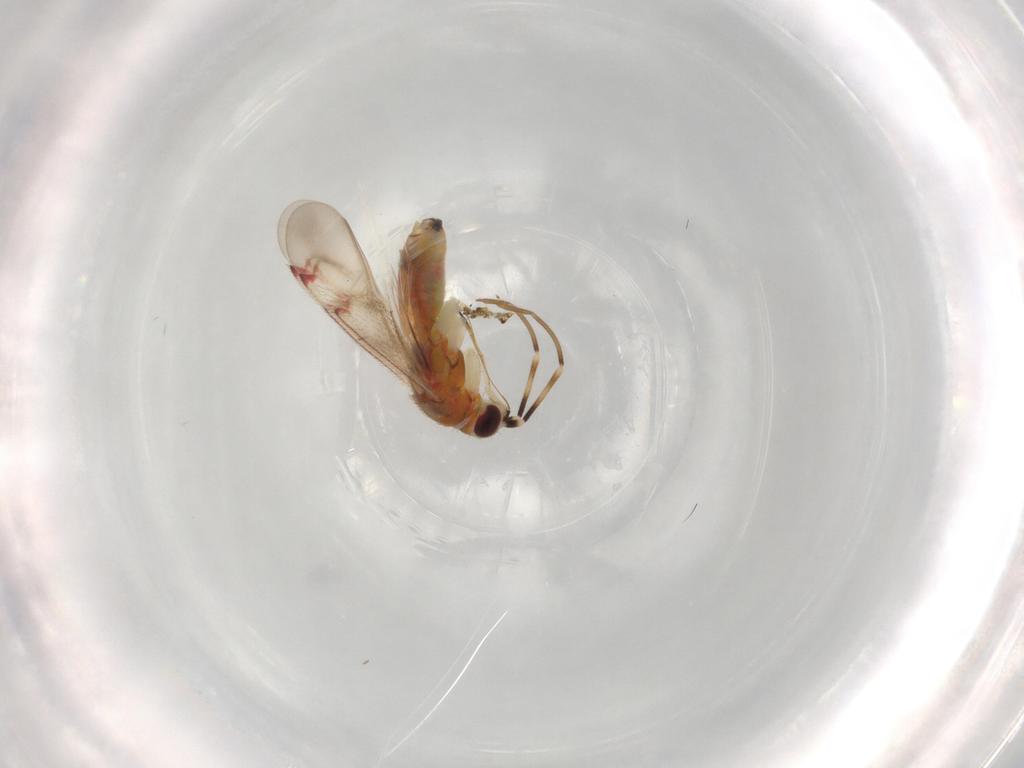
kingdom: Animalia
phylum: Arthropoda
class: Insecta
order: Hemiptera
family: Miridae
